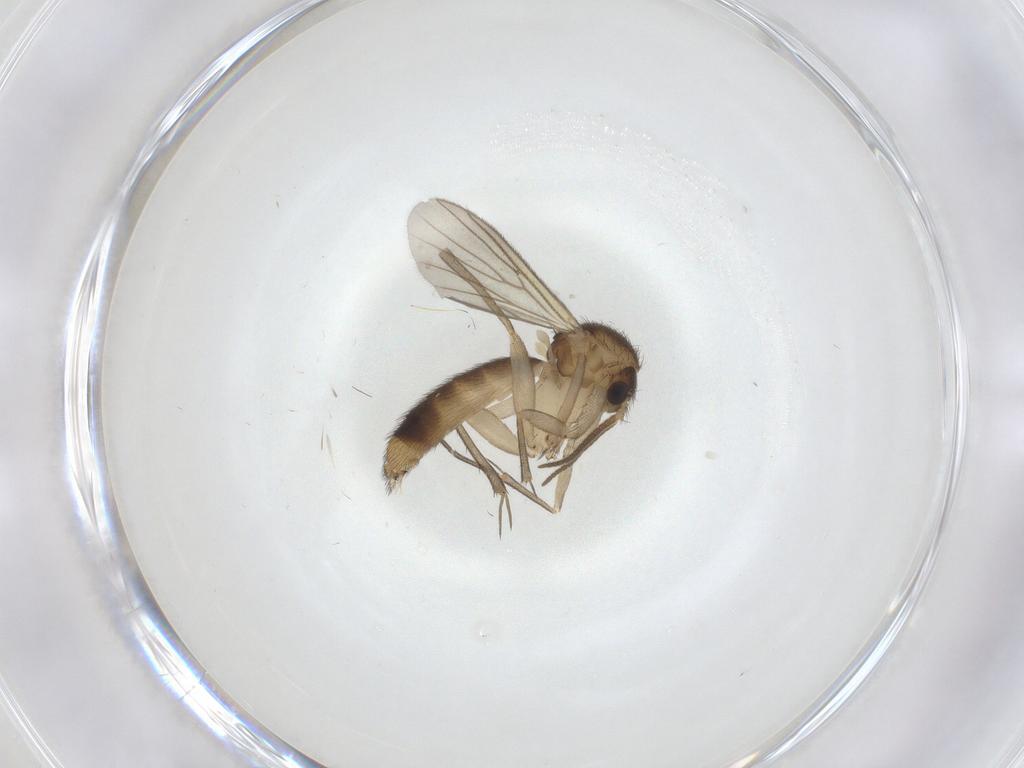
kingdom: Animalia
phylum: Arthropoda
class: Insecta
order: Diptera
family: Mycetophilidae
